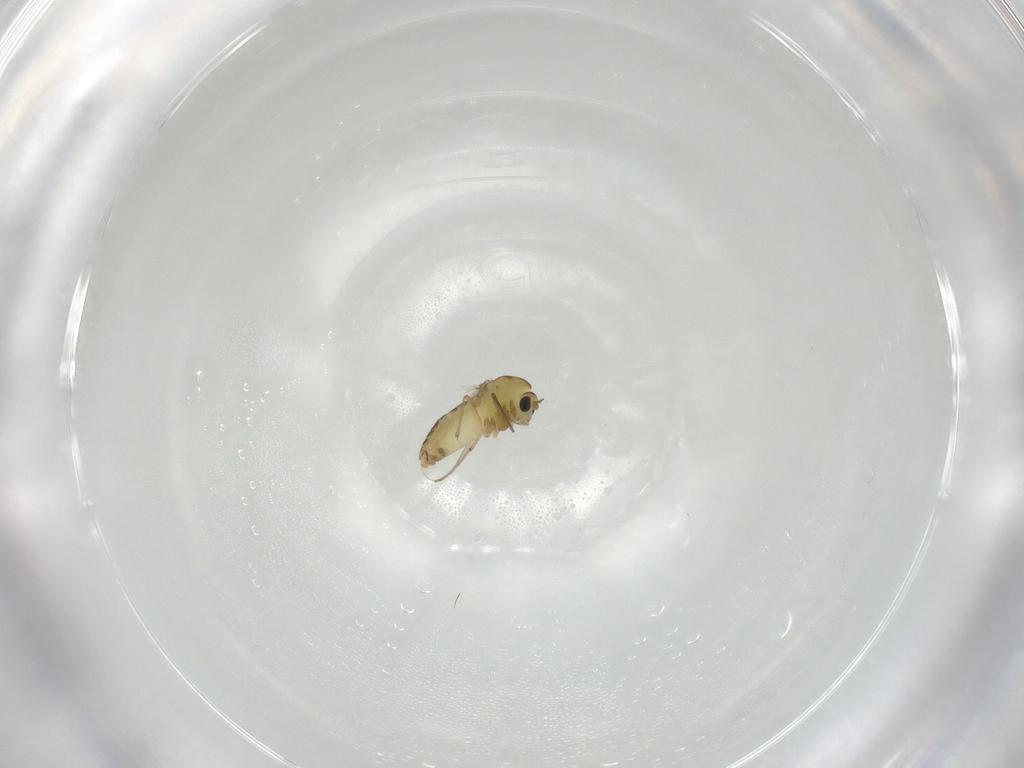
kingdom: Animalia
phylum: Arthropoda
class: Insecta
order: Diptera
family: Chironomidae
